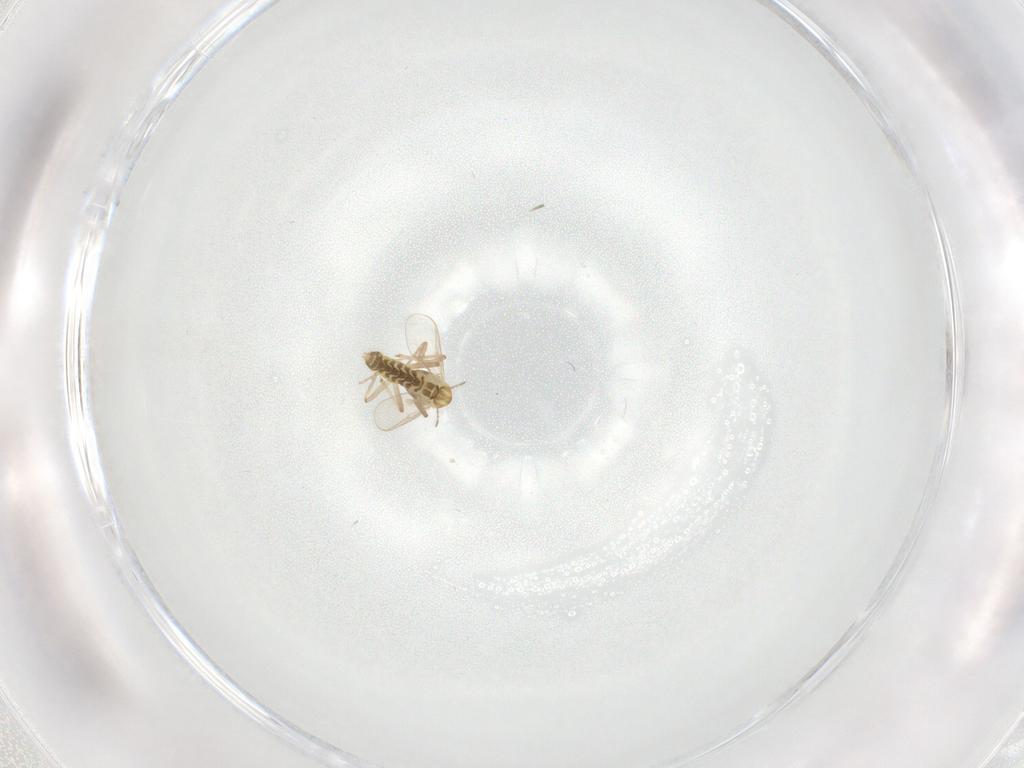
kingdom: Animalia
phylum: Arthropoda
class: Insecta
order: Diptera
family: Chironomidae
